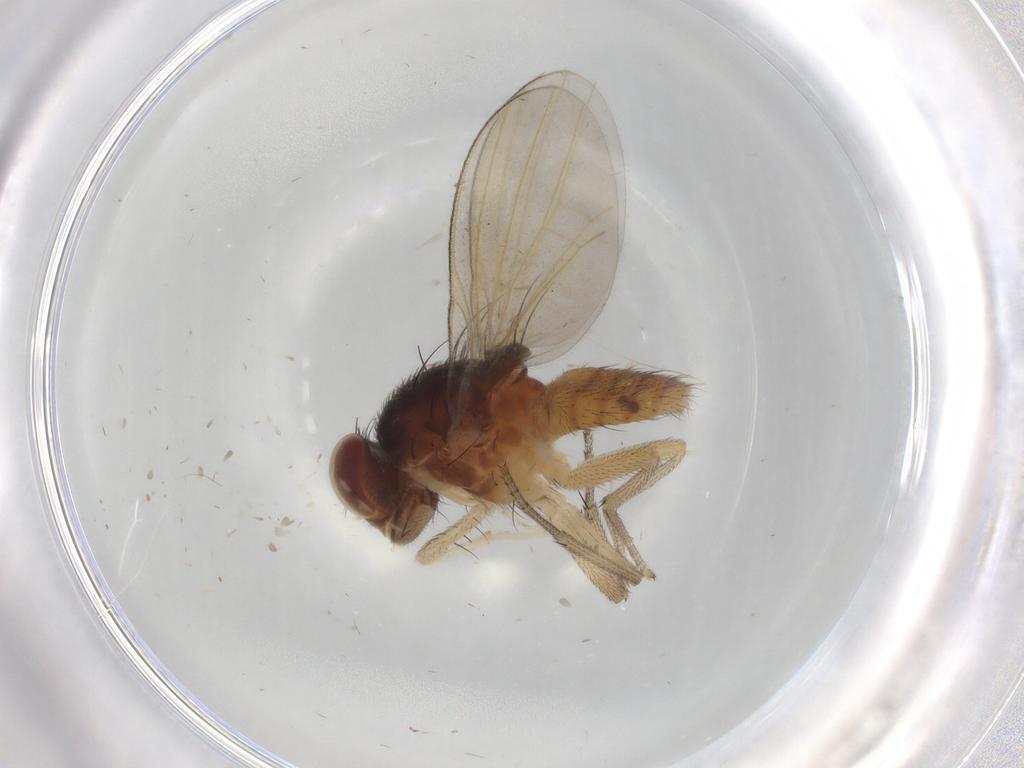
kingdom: Animalia
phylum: Arthropoda
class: Insecta
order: Diptera
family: Lauxaniidae
